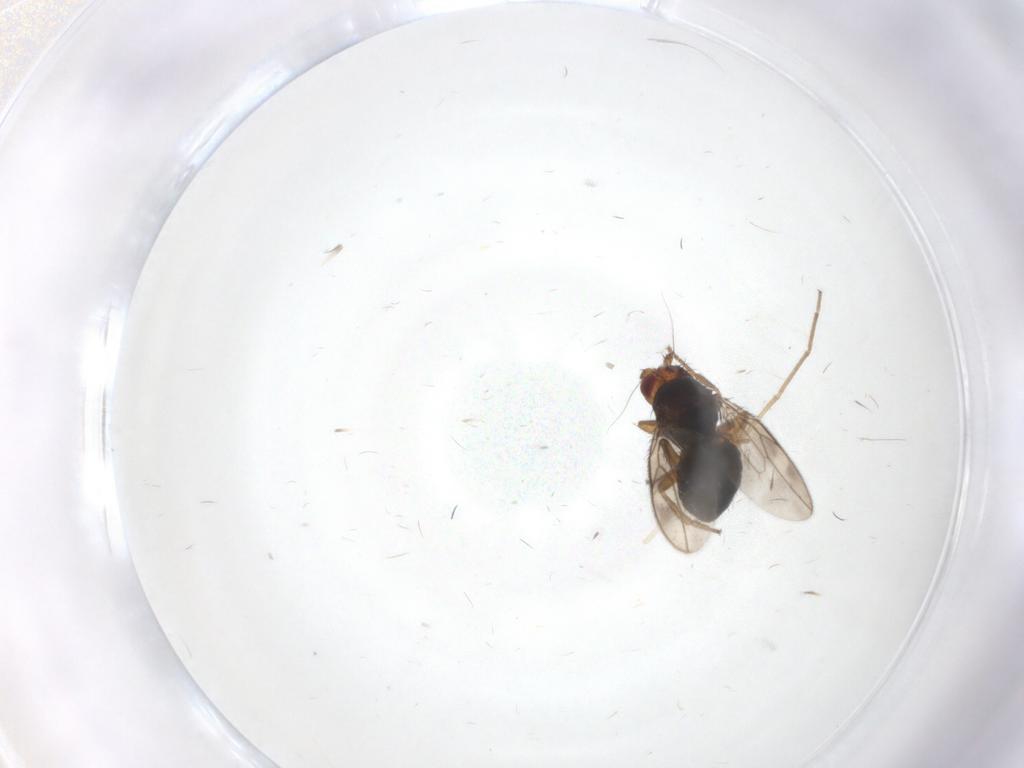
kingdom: Animalia
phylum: Arthropoda
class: Insecta
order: Diptera
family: Sphaeroceridae
